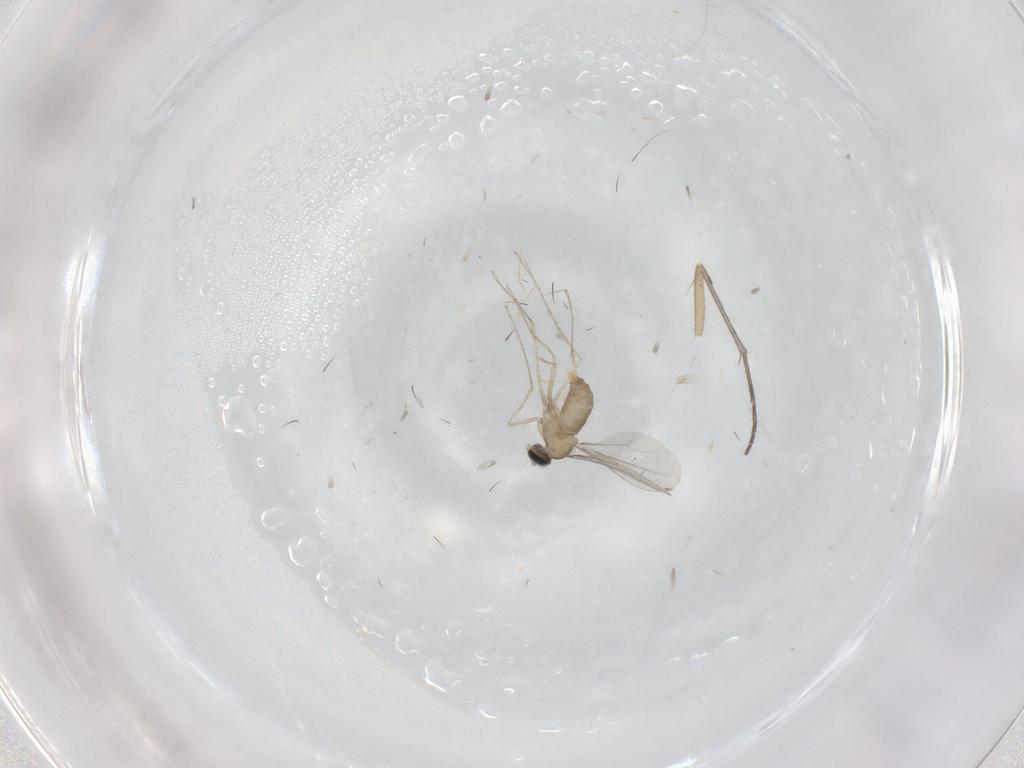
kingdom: Animalia
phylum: Arthropoda
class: Insecta
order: Diptera
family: Cecidomyiidae
